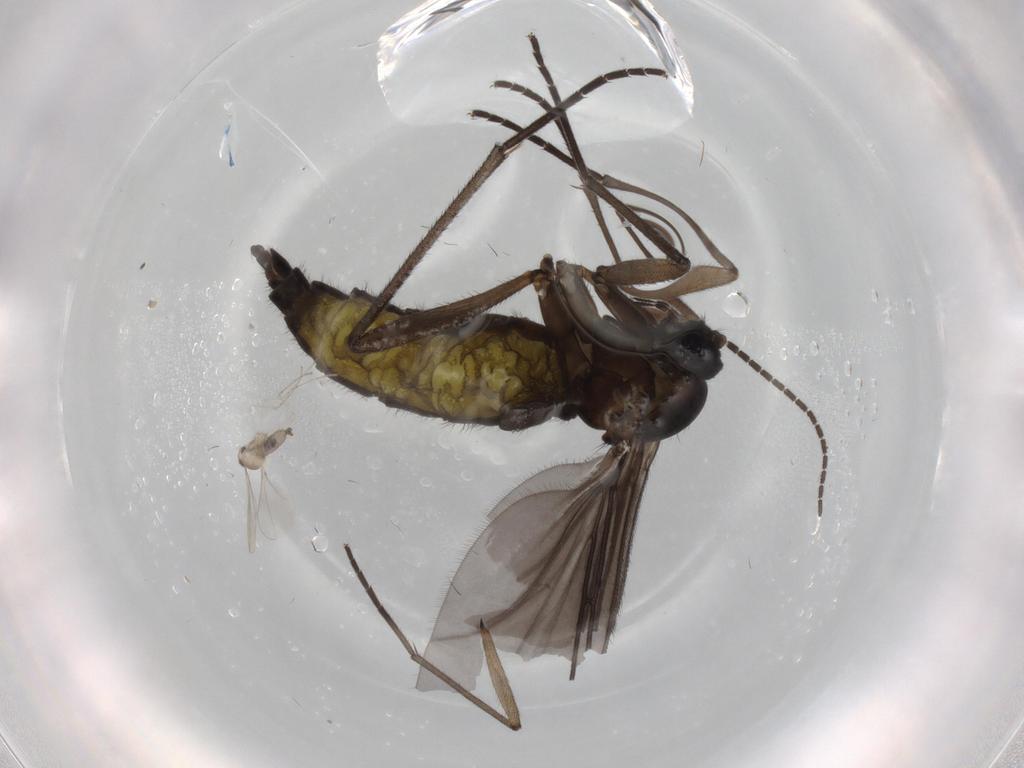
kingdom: Animalia
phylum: Arthropoda
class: Insecta
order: Diptera
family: Sciaridae
